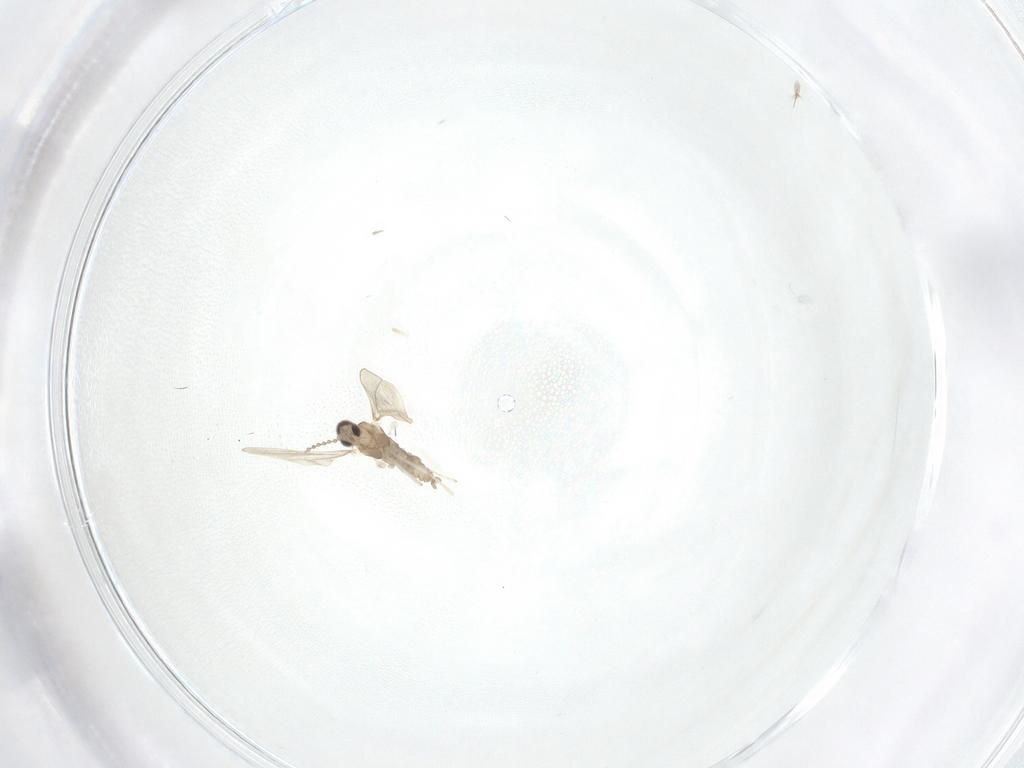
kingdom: Animalia
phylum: Arthropoda
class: Insecta
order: Diptera
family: Cecidomyiidae
